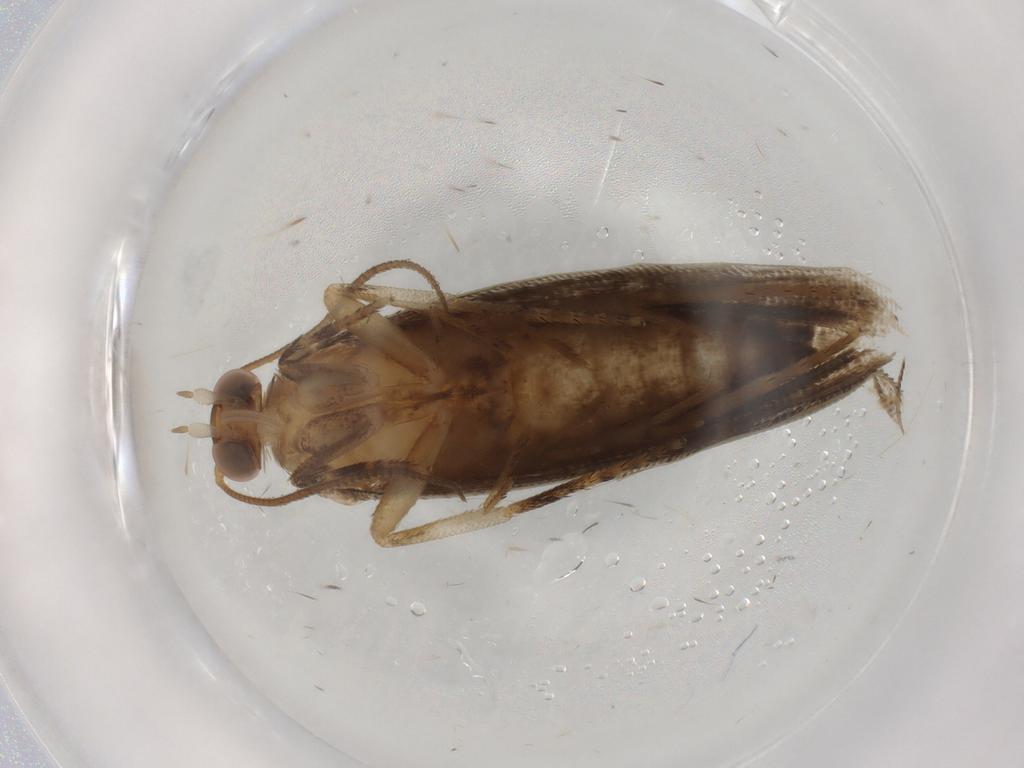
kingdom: Animalia
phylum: Arthropoda
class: Insecta
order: Lepidoptera
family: Tortricidae
